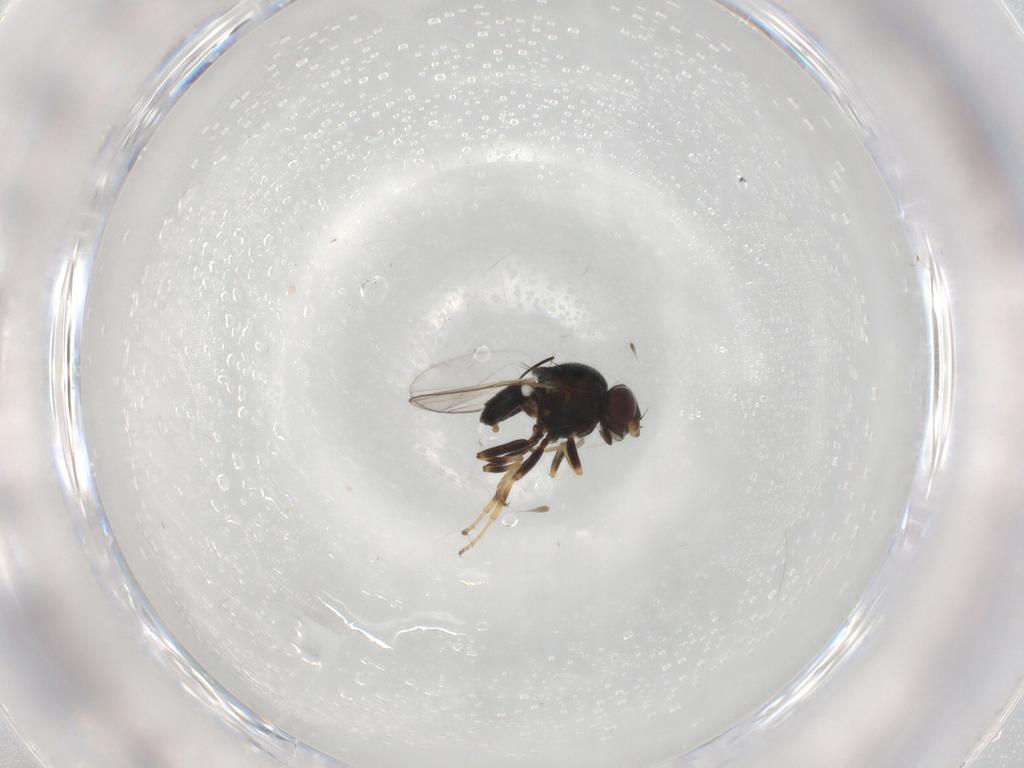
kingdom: Animalia
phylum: Arthropoda
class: Insecta
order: Diptera
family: Chloropidae
